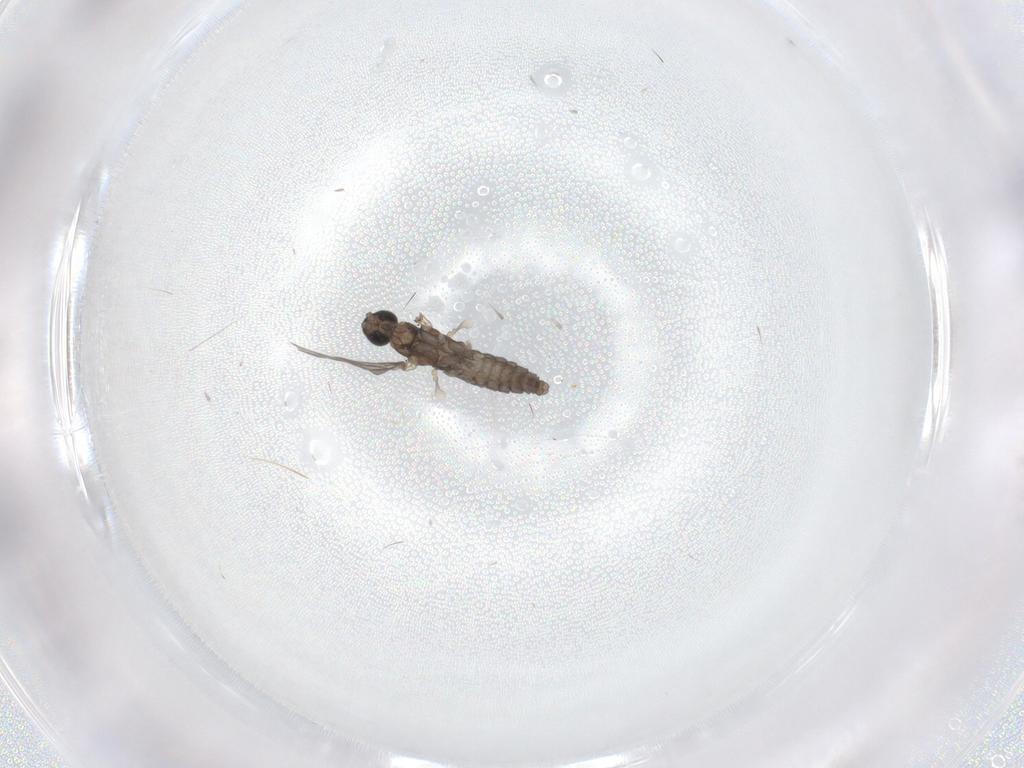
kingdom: Animalia
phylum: Arthropoda
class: Insecta
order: Diptera
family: Cecidomyiidae
